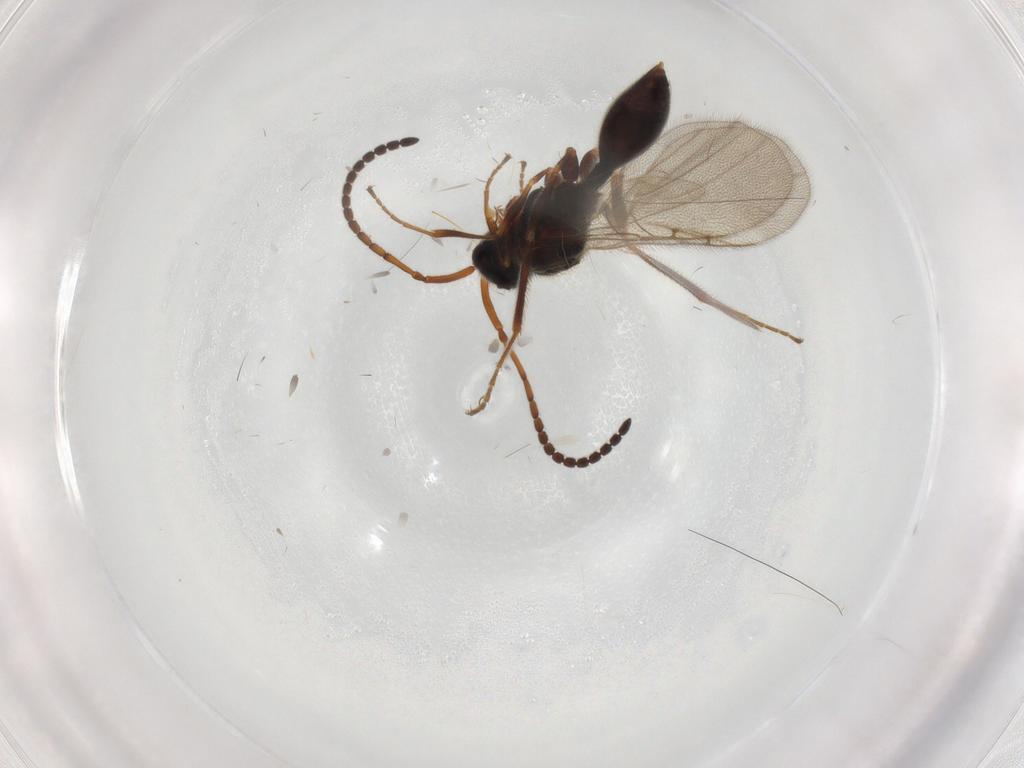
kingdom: Animalia
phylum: Arthropoda
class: Insecta
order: Hymenoptera
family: Diapriidae
